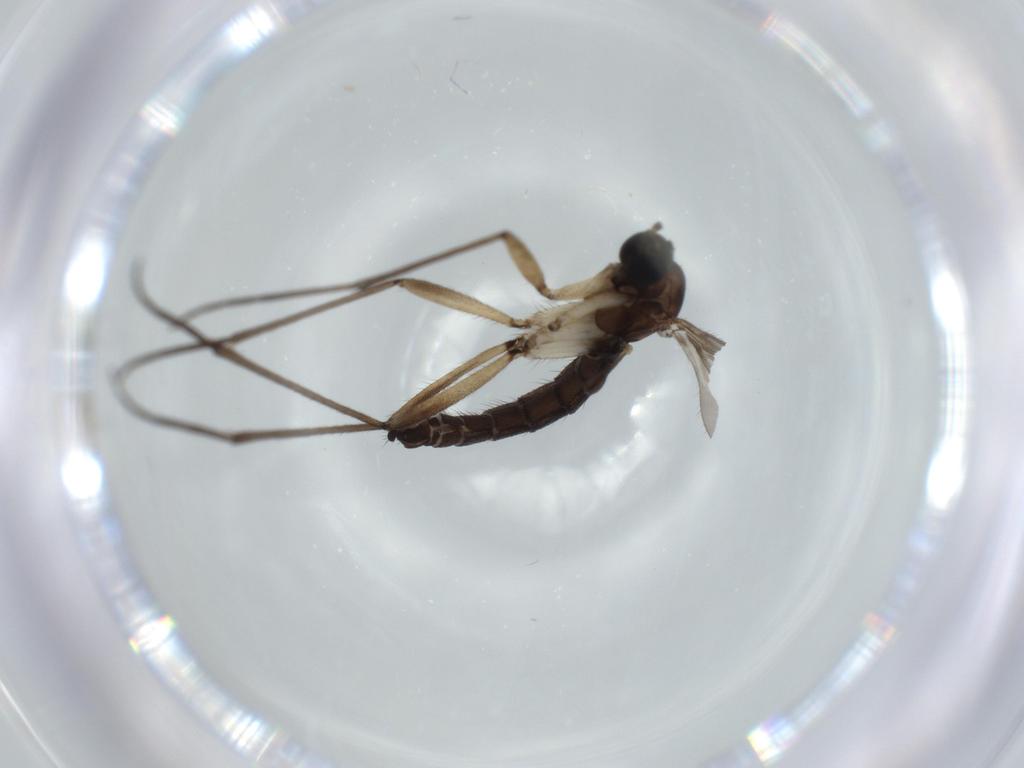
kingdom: Animalia
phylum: Arthropoda
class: Insecta
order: Diptera
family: Sciaridae
